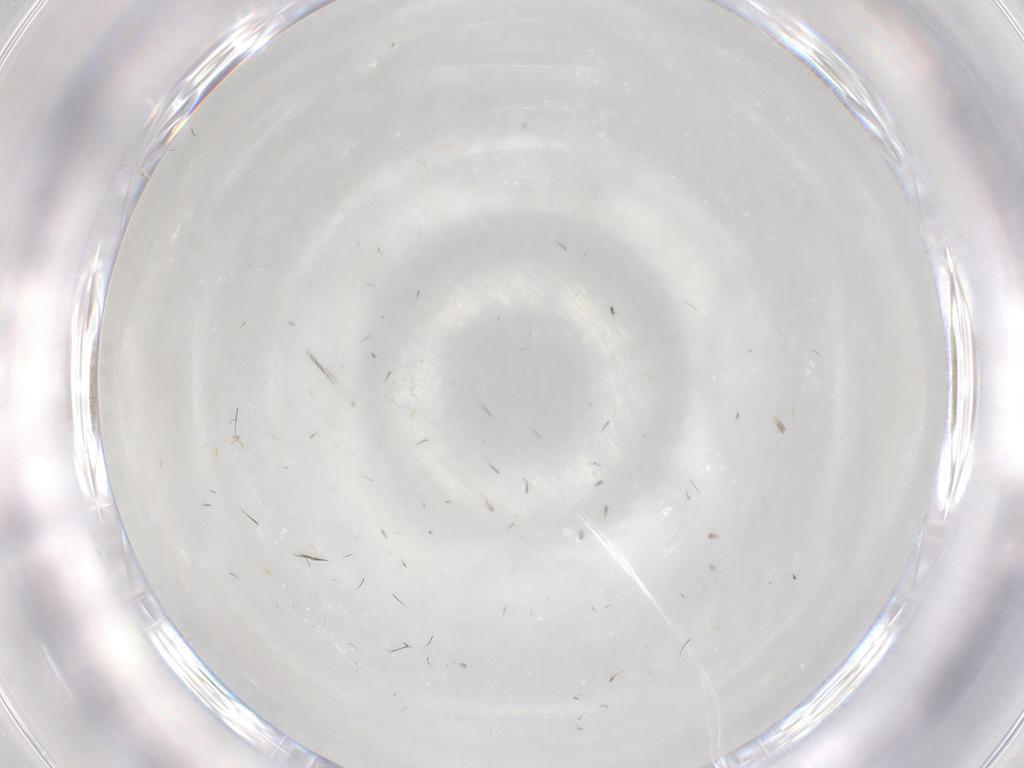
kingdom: Animalia
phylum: Arthropoda
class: Insecta
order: Coleoptera
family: Coccinellidae
